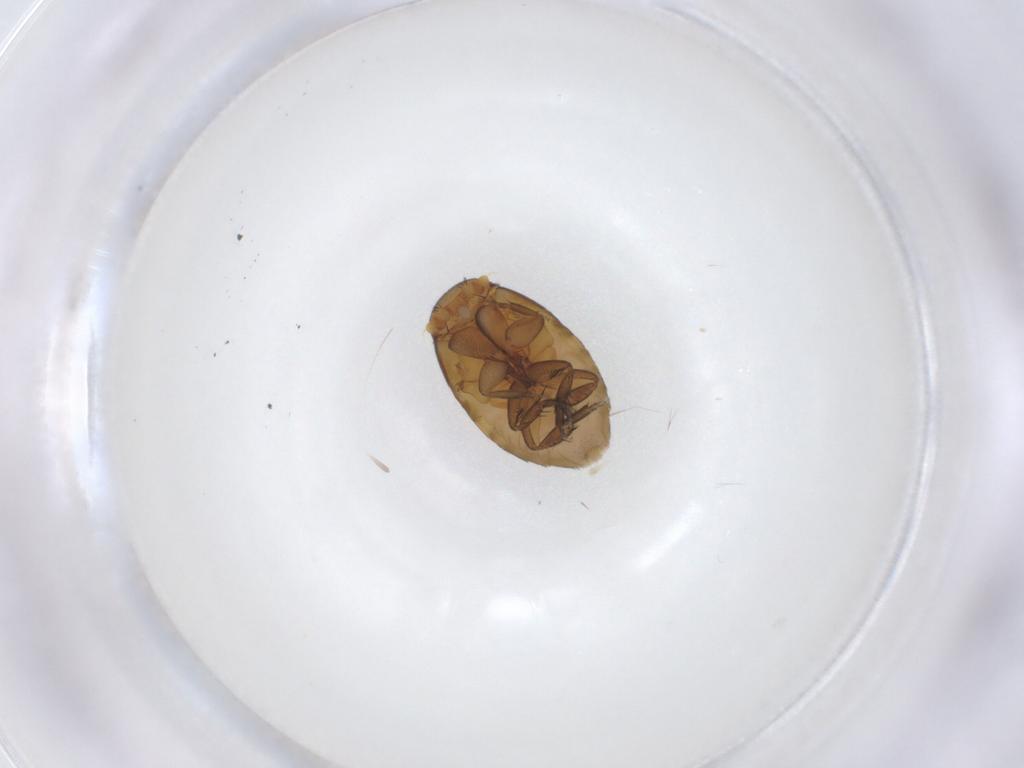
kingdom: Animalia
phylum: Arthropoda
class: Insecta
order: Diptera
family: Phoridae
